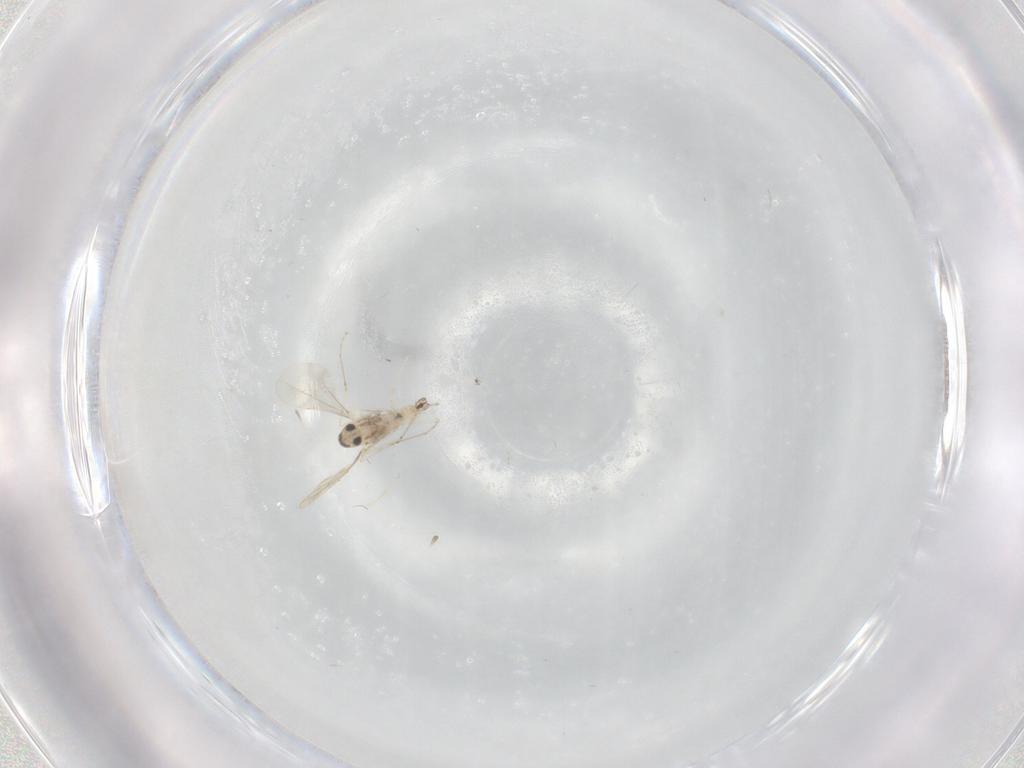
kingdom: Animalia
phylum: Arthropoda
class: Insecta
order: Diptera
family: Cecidomyiidae
